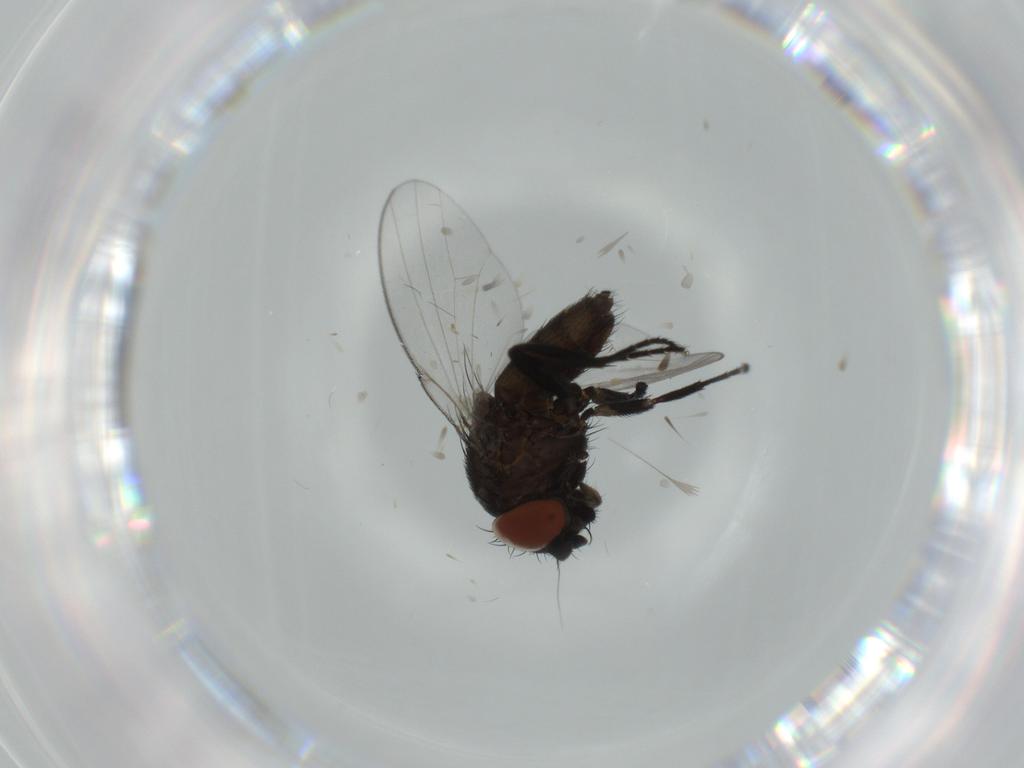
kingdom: Animalia
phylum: Arthropoda
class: Insecta
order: Diptera
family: Milichiidae
